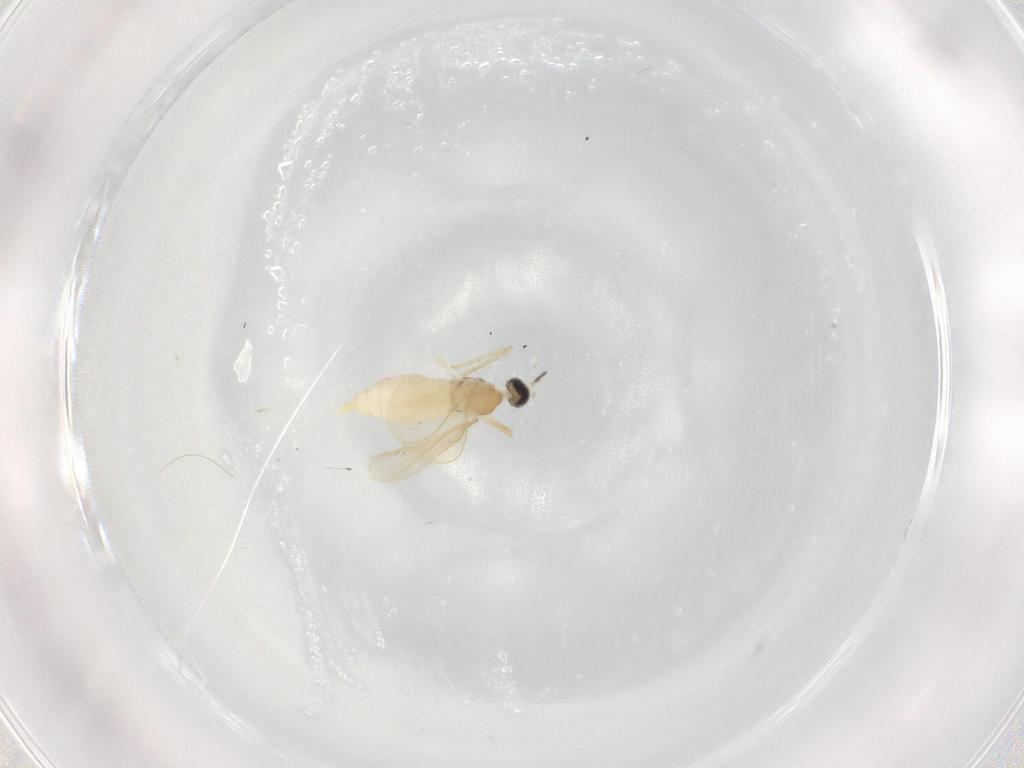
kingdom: Animalia
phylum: Arthropoda
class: Insecta
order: Diptera
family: Cecidomyiidae
